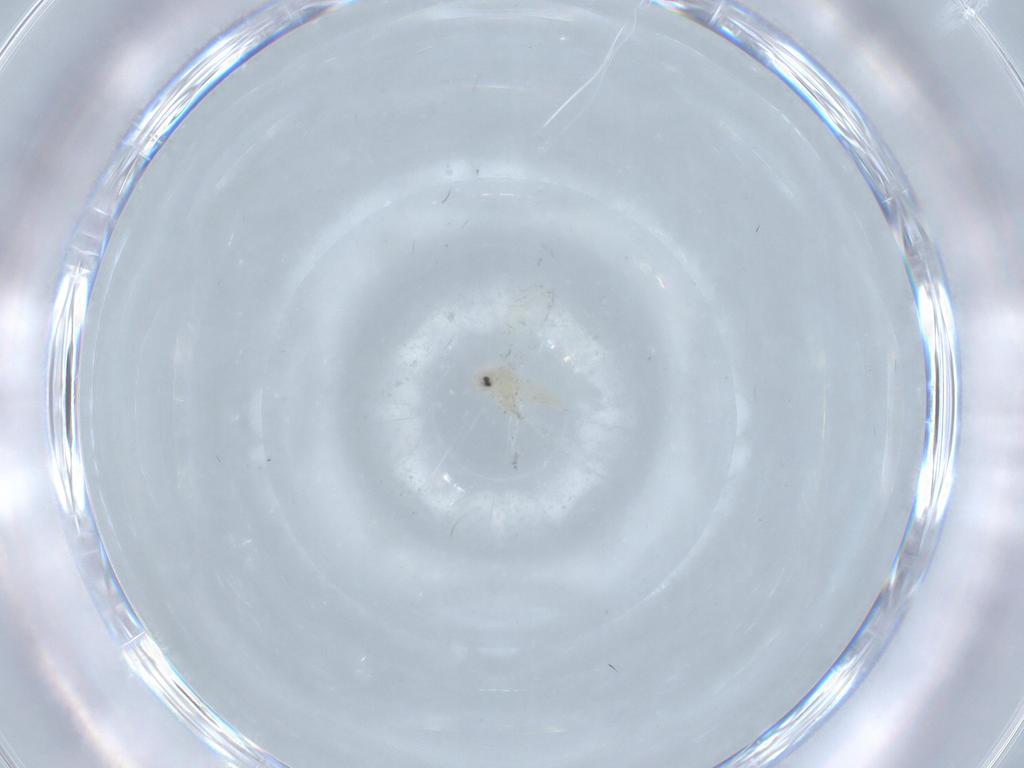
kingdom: Animalia
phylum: Arthropoda
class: Insecta
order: Hemiptera
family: Aleyrodidae
